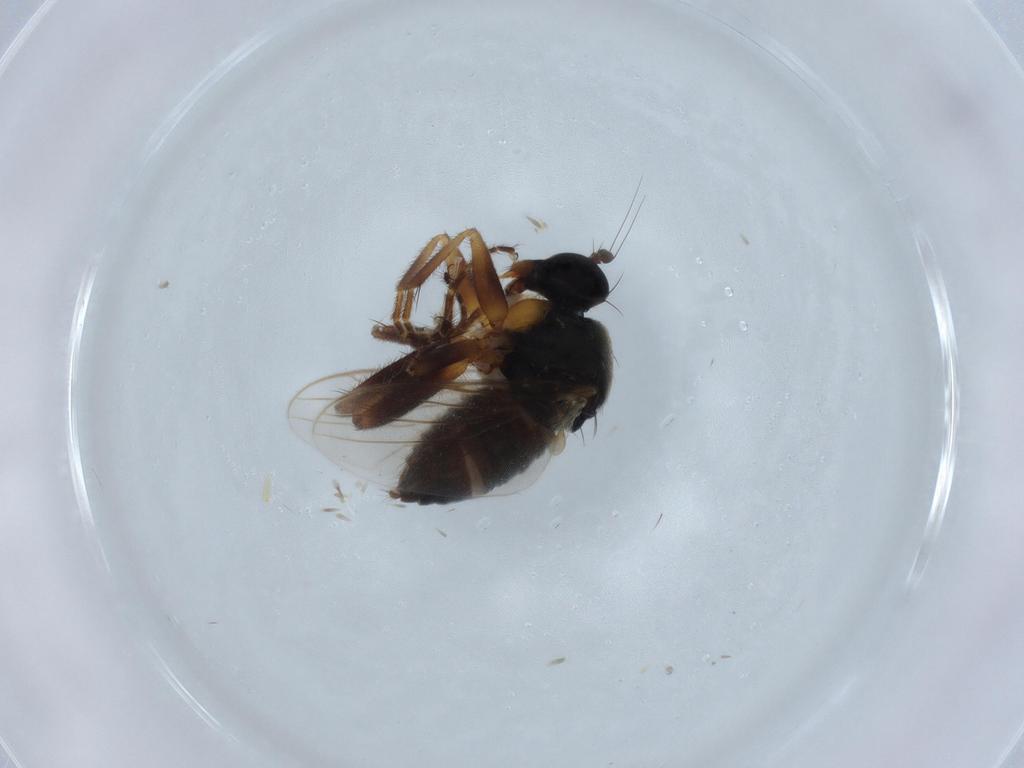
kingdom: Animalia
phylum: Arthropoda
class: Insecta
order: Diptera
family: Hybotidae
